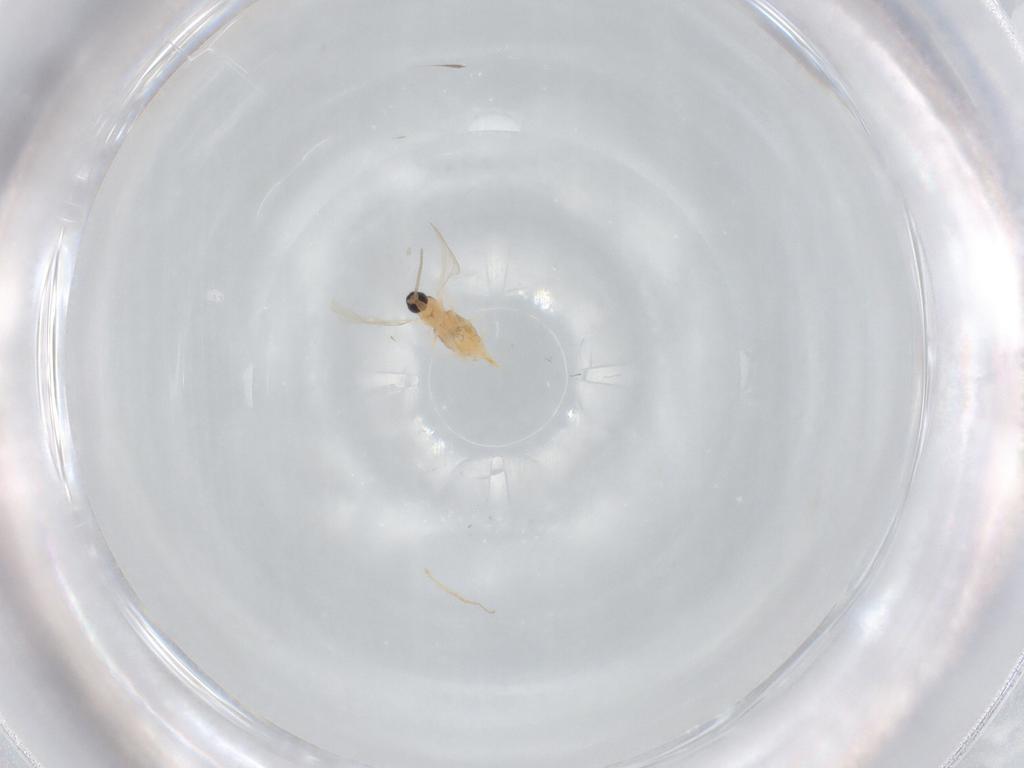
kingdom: Animalia
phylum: Arthropoda
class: Insecta
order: Diptera
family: Cecidomyiidae
